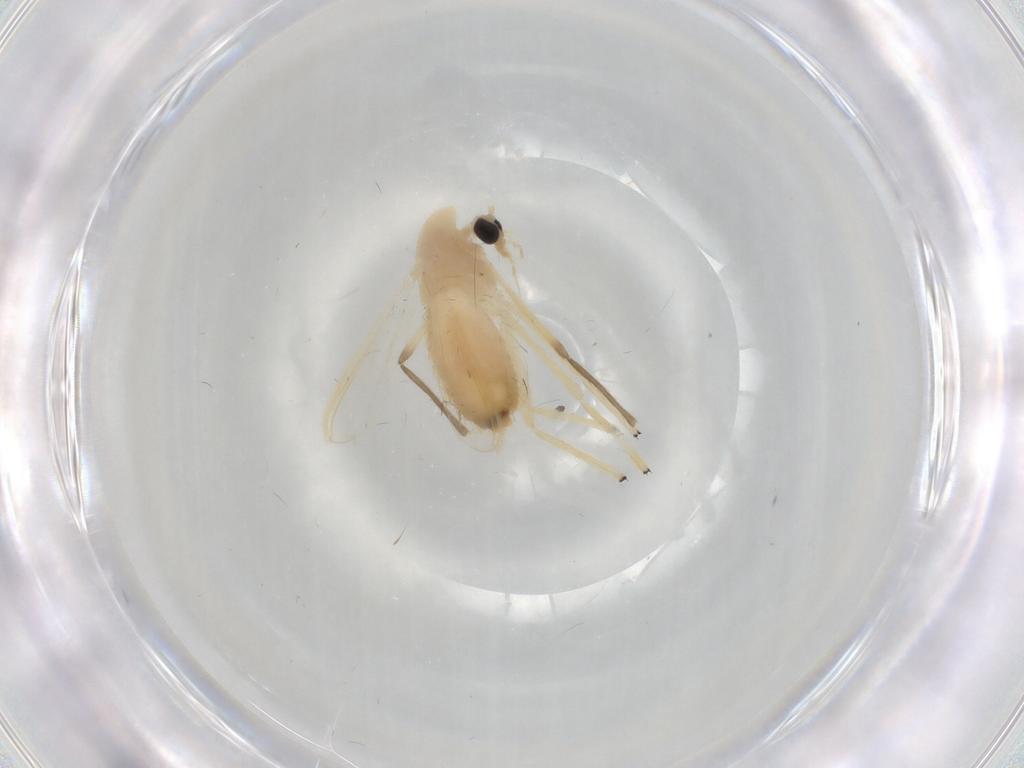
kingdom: Animalia
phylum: Arthropoda
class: Insecta
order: Diptera
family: Chironomidae
